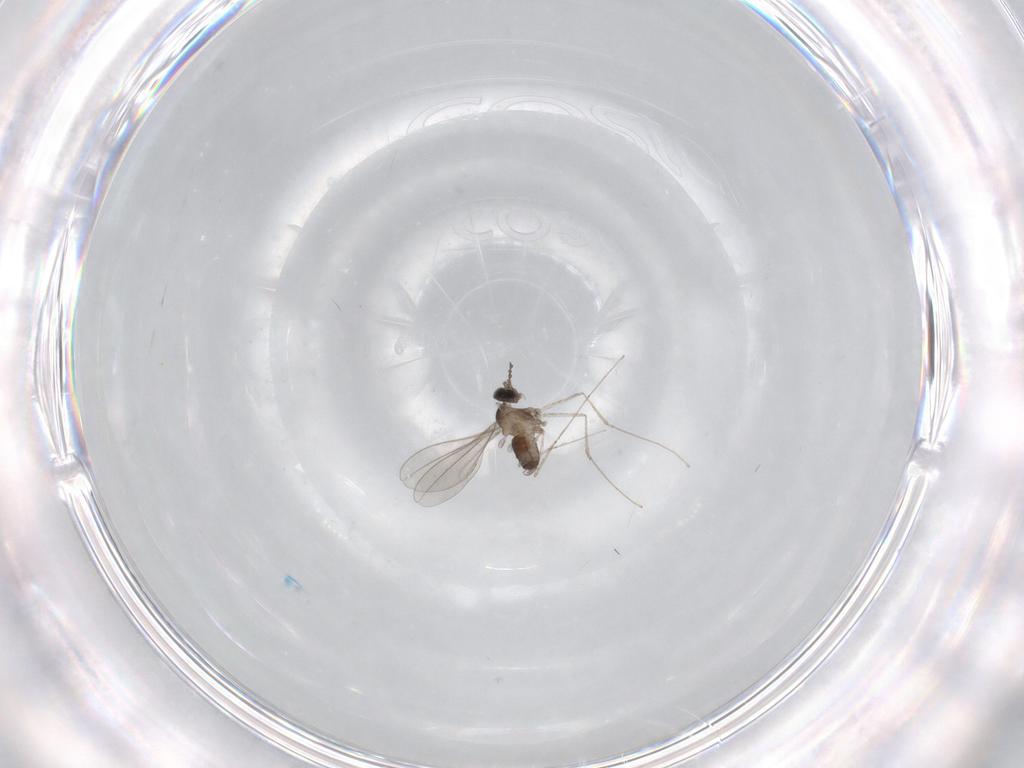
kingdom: Animalia
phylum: Arthropoda
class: Insecta
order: Diptera
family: Cecidomyiidae
